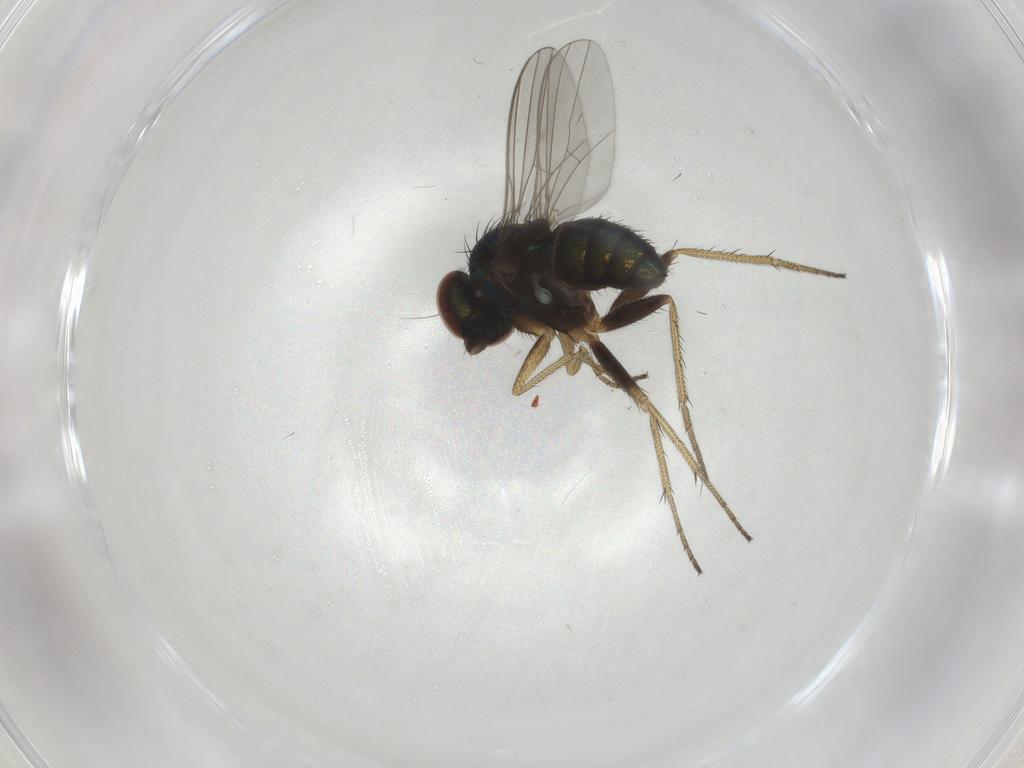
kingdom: Animalia
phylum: Arthropoda
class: Insecta
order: Diptera
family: Dolichopodidae
